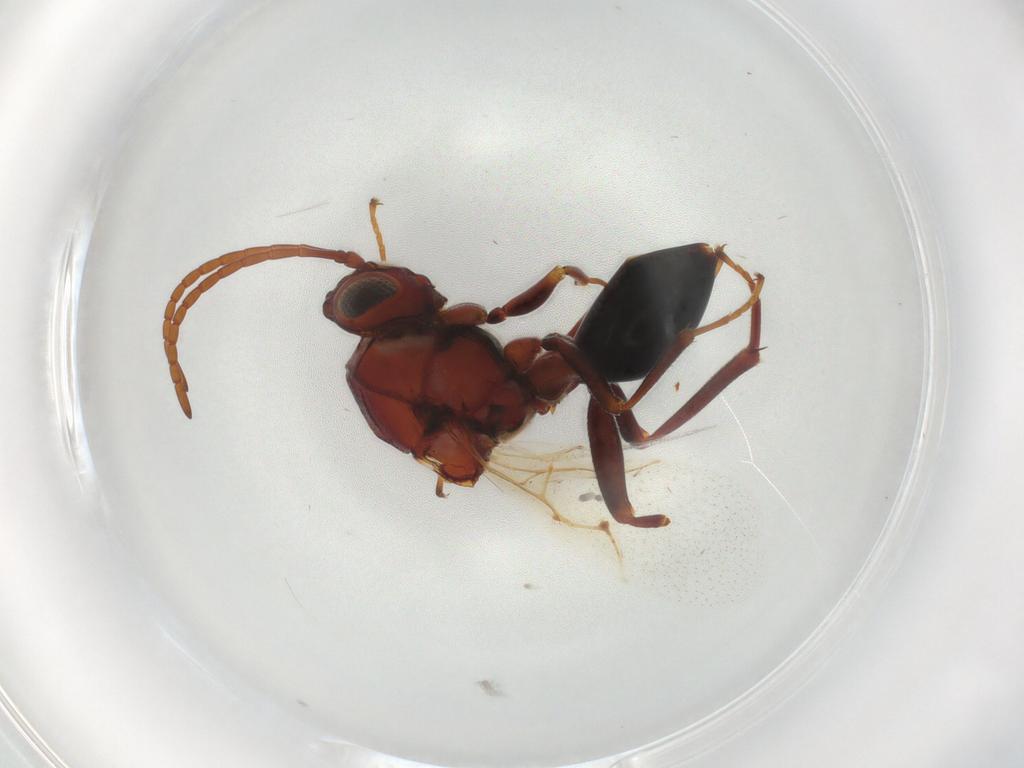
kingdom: Animalia
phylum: Arthropoda
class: Insecta
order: Hymenoptera
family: Figitidae
